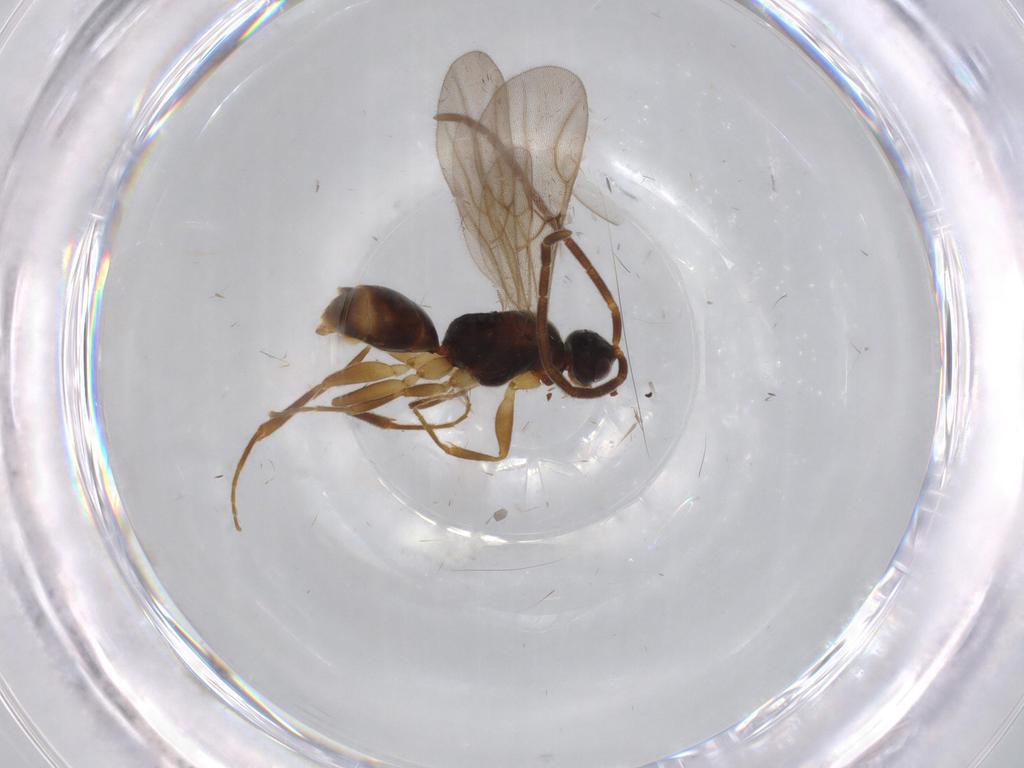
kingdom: Animalia
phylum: Arthropoda
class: Insecta
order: Hymenoptera
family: Embolemidae
